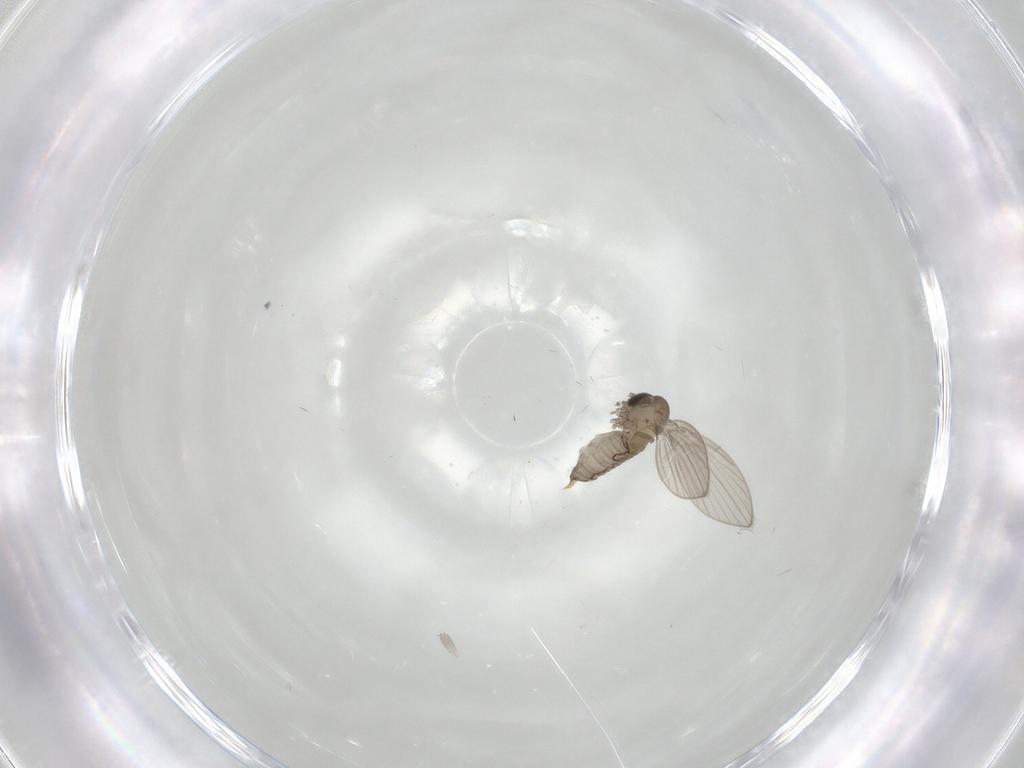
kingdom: Animalia
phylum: Arthropoda
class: Insecta
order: Diptera
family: Psychodidae
